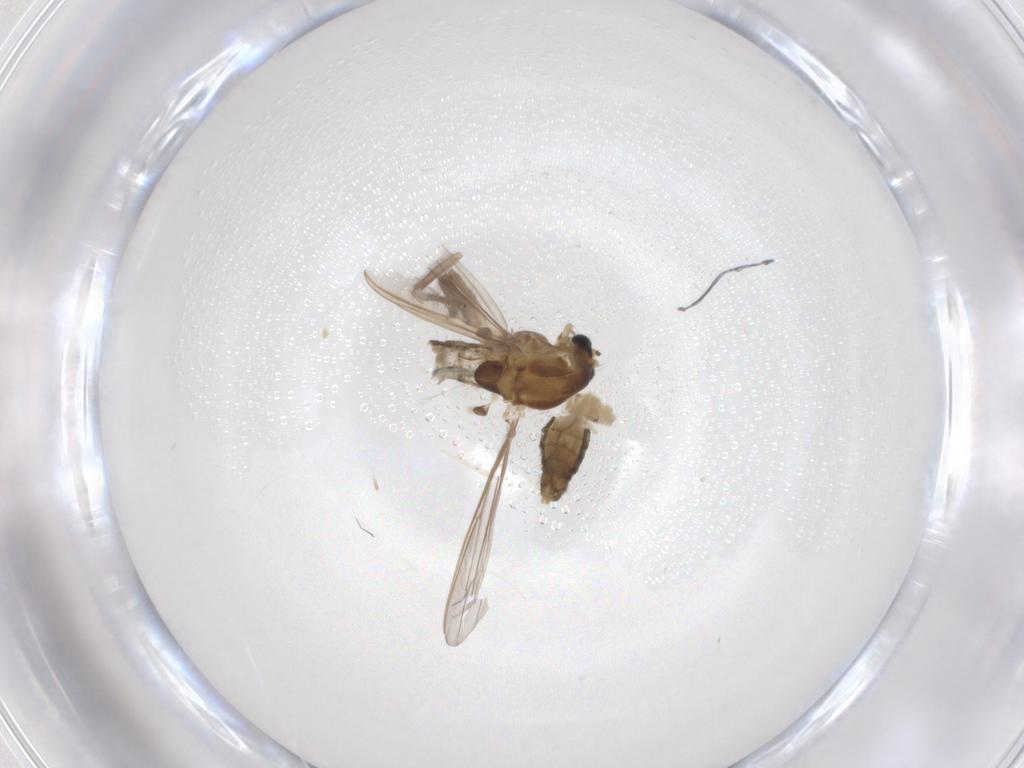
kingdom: Animalia
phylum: Arthropoda
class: Insecta
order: Diptera
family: Chironomidae
